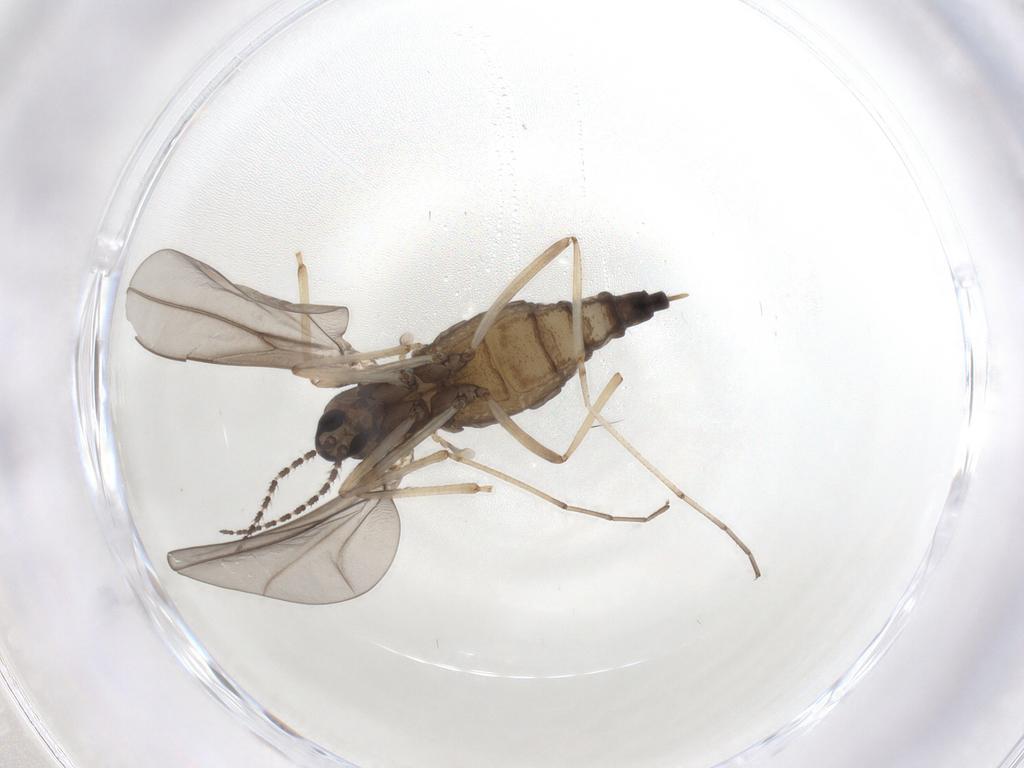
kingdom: Animalia
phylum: Arthropoda
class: Insecta
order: Diptera
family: Cecidomyiidae
